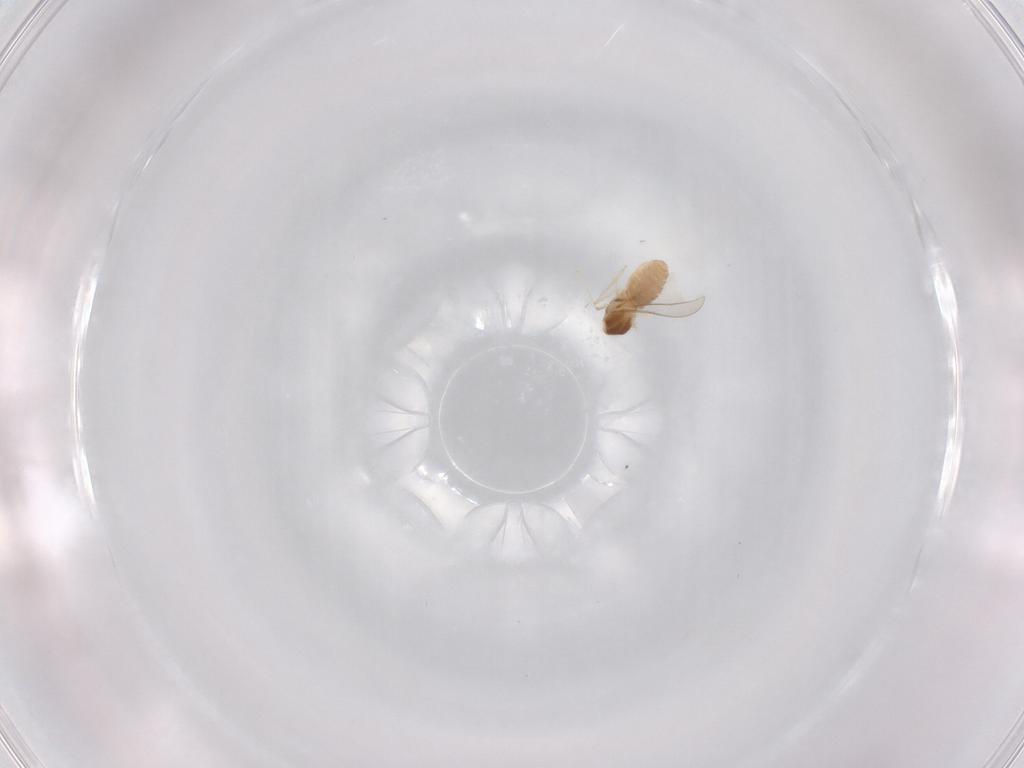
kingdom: Animalia
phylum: Arthropoda
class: Insecta
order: Diptera
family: Cecidomyiidae
